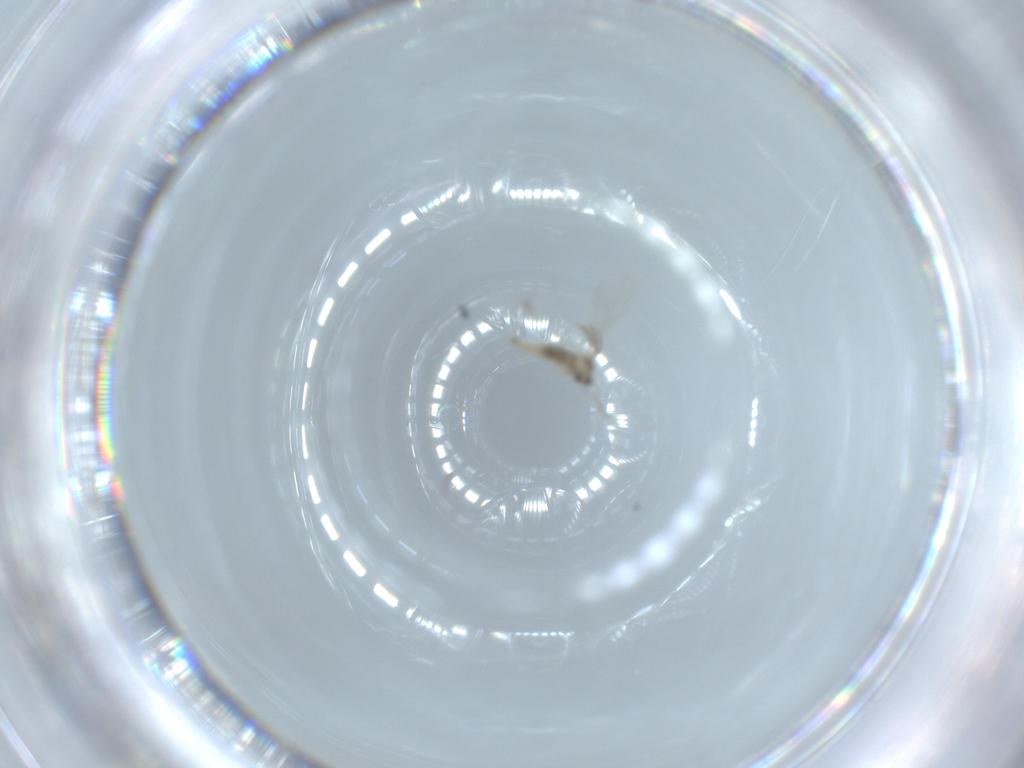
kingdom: Animalia
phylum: Arthropoda
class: Insecta
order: Diptera
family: Cecidomyiidae
